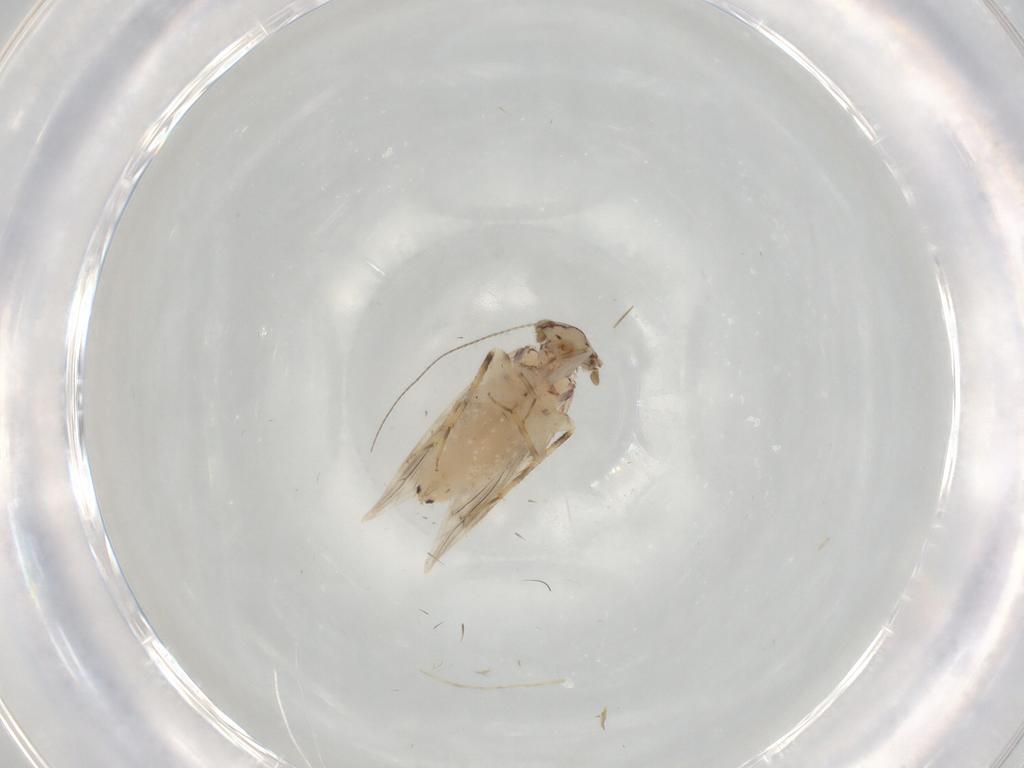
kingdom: Animalia
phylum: Arthropoda
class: Insecta
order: Psocodea
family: Lepidopsocidae
